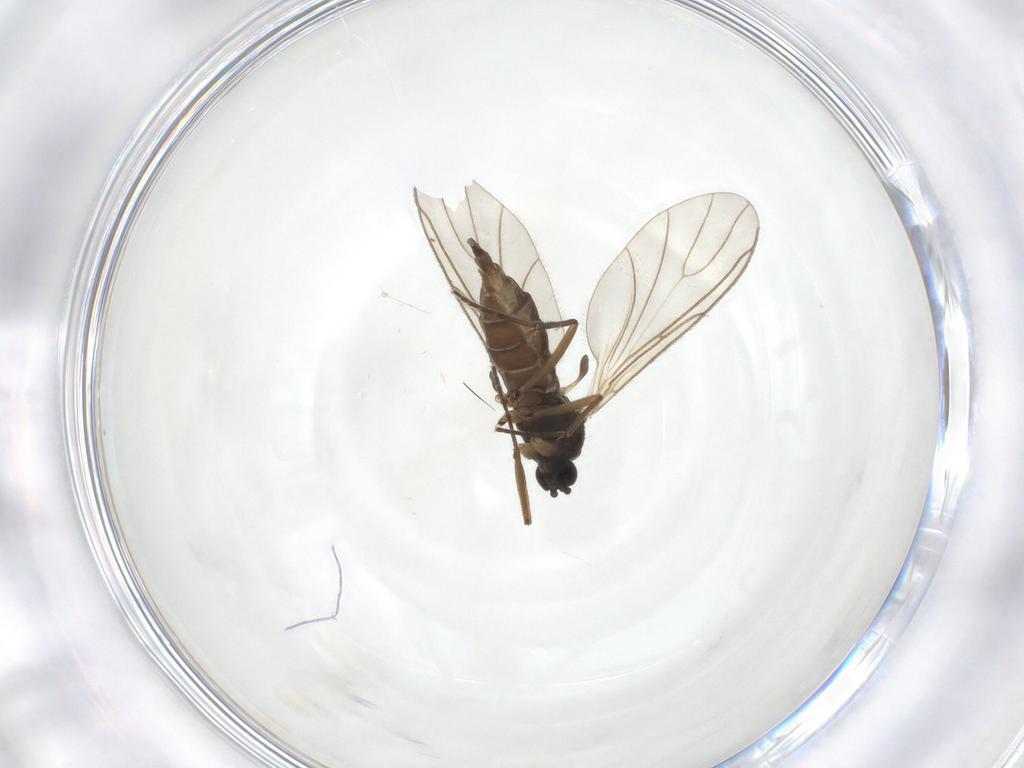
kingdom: Animalia
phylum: Arthropoda
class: Insecta
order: Diptera
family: Sciaridae
